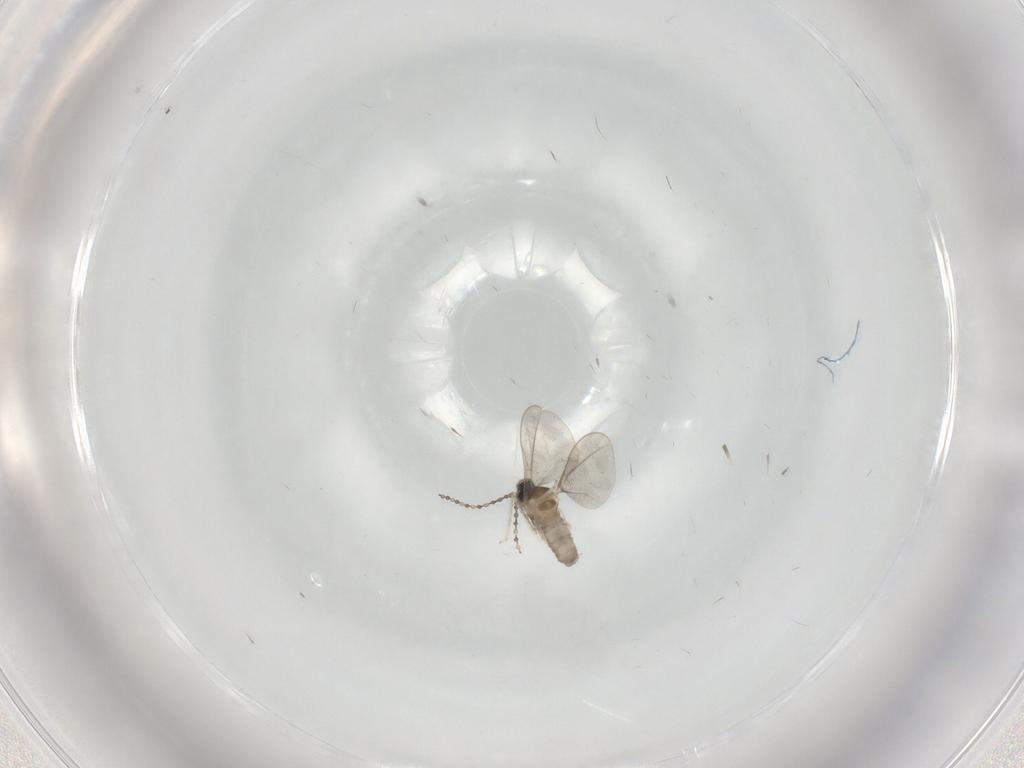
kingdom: Animalia
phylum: Arthropoda
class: Insecta
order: Diptera
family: Cecidomyiidae
